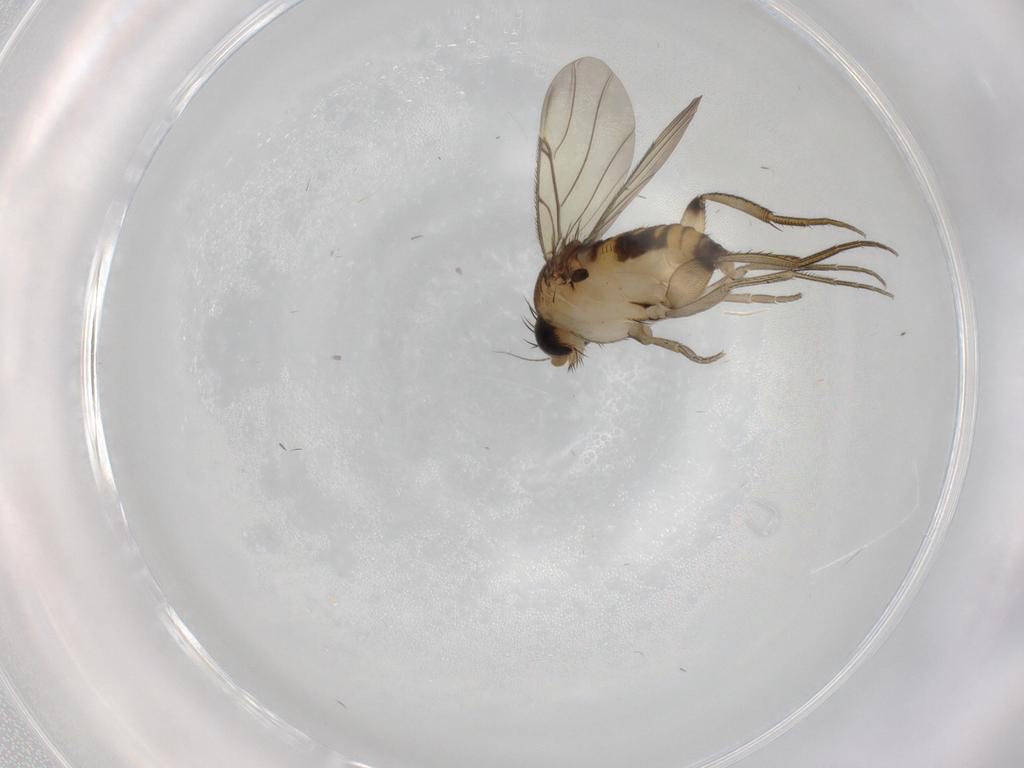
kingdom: Animalia
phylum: Arthropoda
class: Insecta
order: Diptera
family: Phoridae
